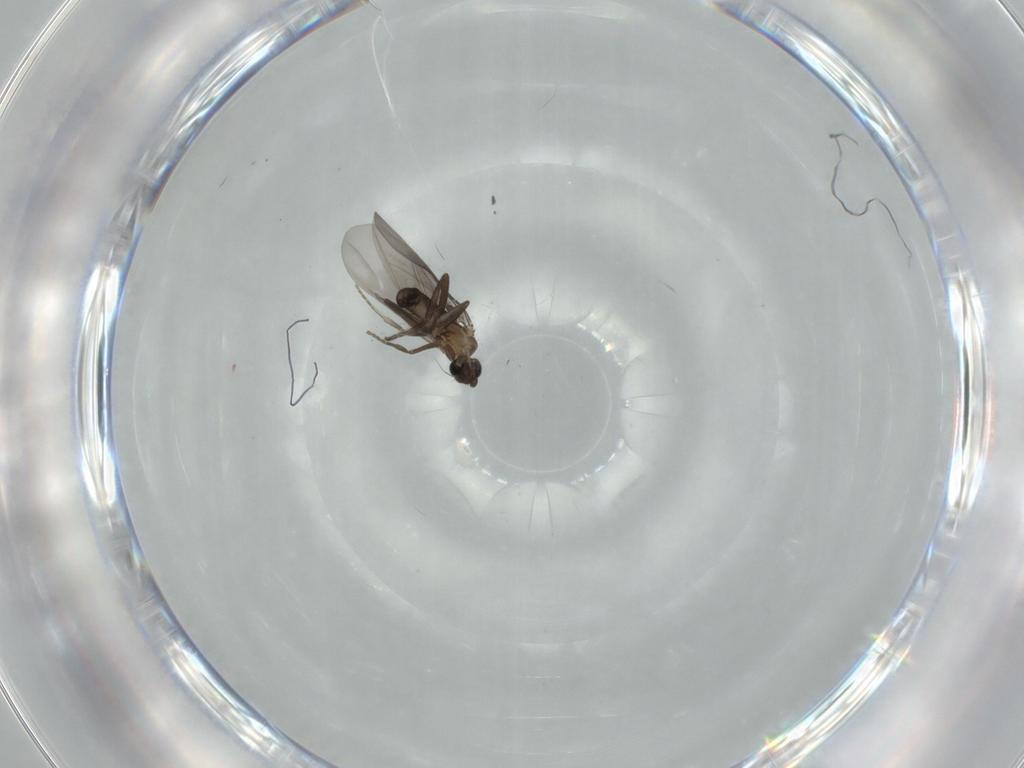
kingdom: Animalia
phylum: Arthropoda
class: Insecta
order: Diptera
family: Phoridae
